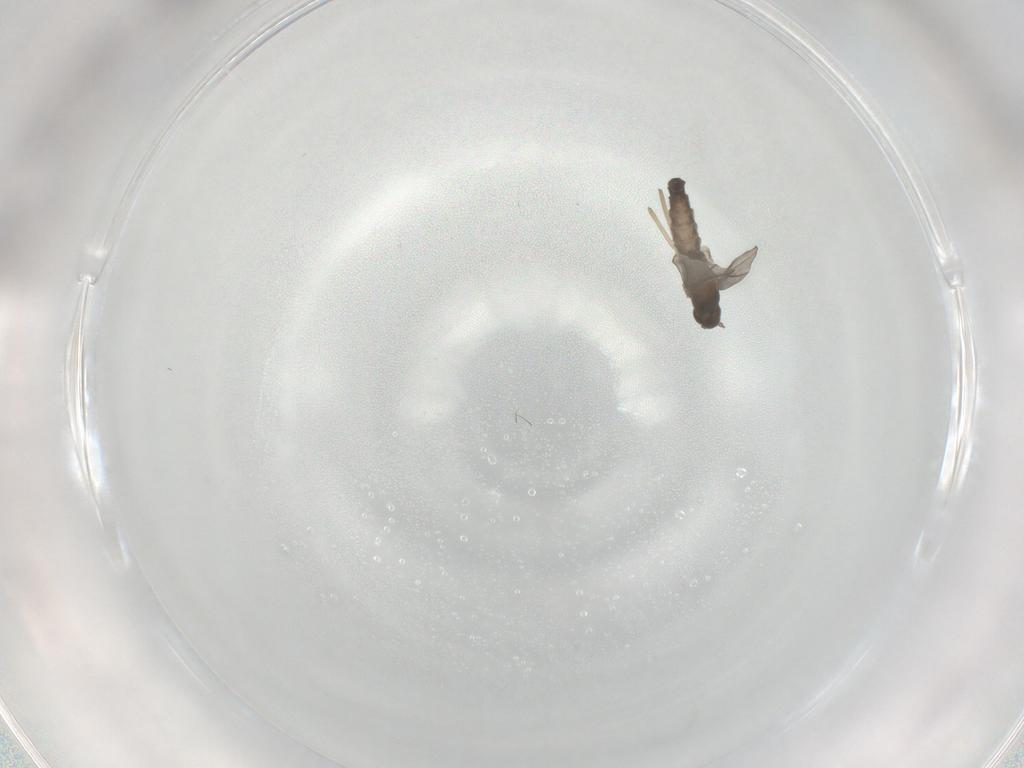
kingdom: Animalia
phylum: Arthropoda
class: Insecta
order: Diptera
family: Cecidomyiidae
